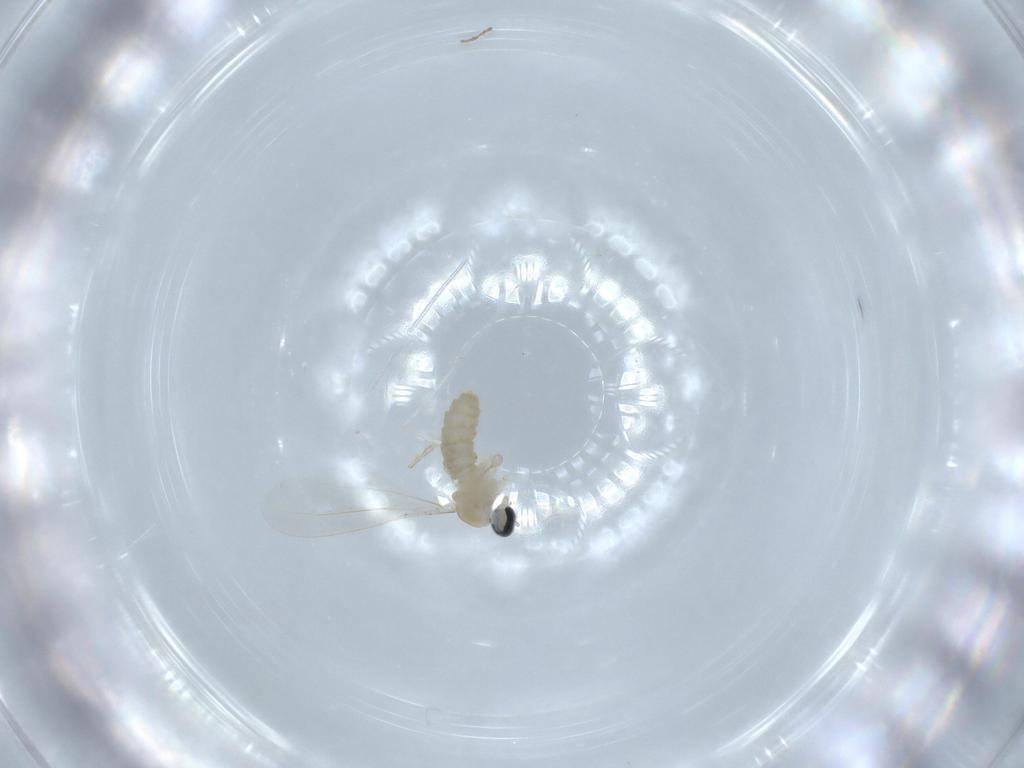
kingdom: Animalia
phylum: Arthropoda
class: Insecta
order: Diptera
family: Cecidomyiidae
